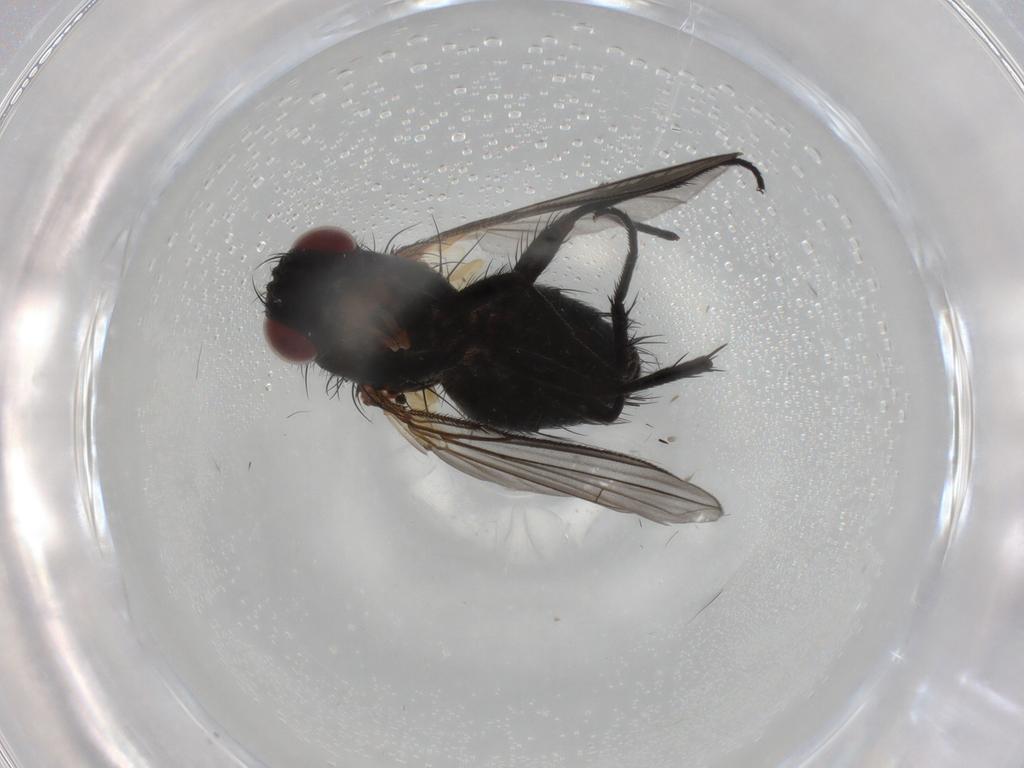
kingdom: Animalia
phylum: Arthropoda
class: Insecta
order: Diptera
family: Tachinidae
